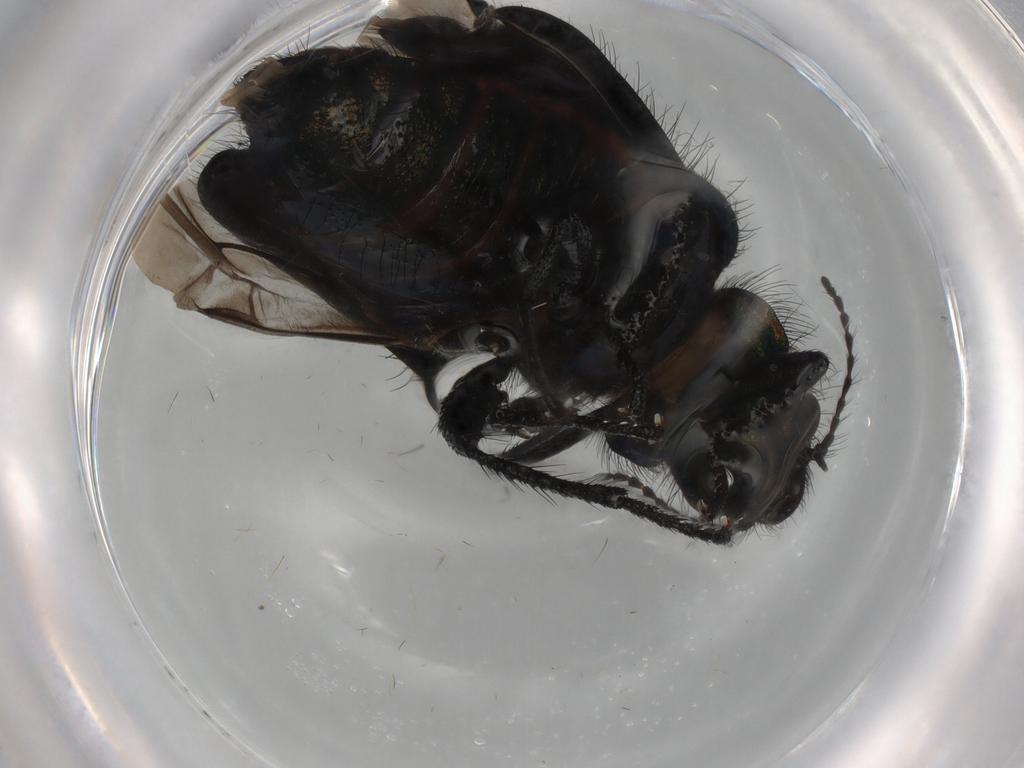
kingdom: Animalia
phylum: Arthropoda
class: Insecta
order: Coleoptera
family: Melyridae
